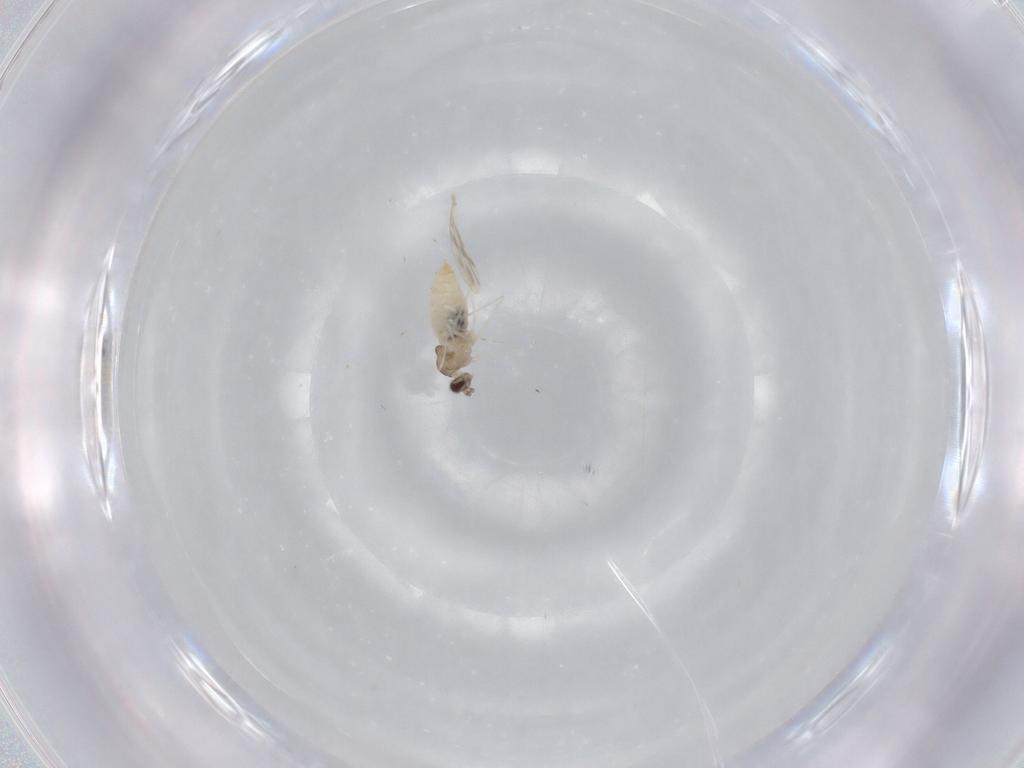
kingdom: Animalia
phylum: Arthropoda
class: Insecta
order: Diptera
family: Cecidomyiidae
